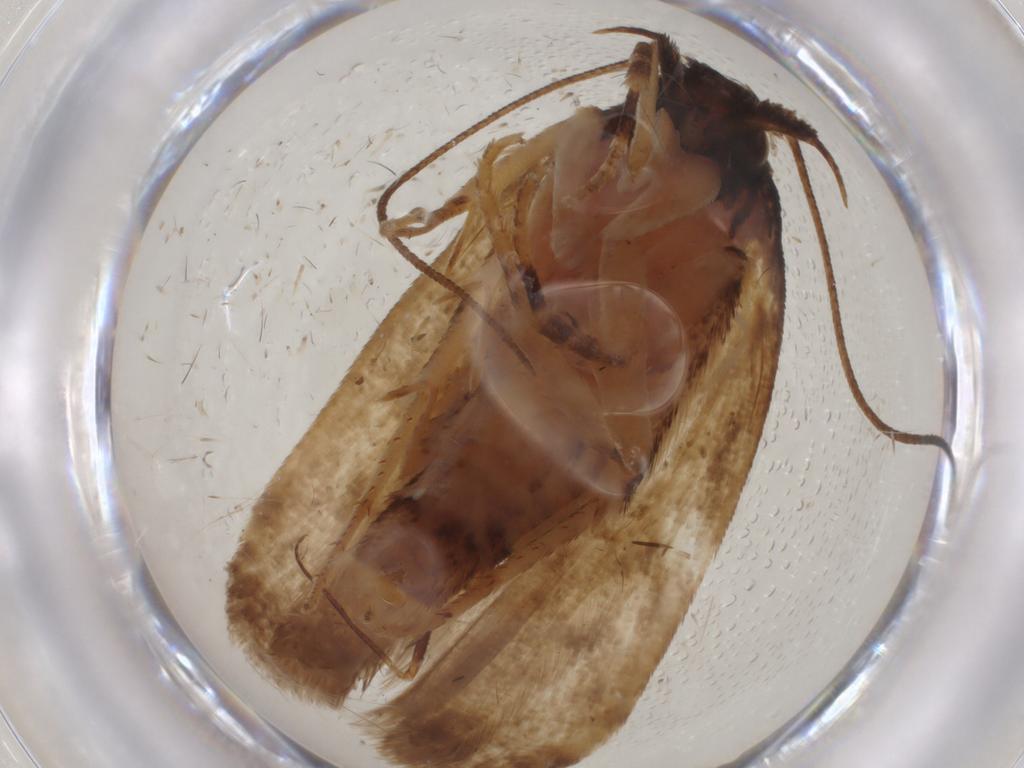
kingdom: Animalia
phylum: Arthropoda
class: Insecta
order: Lepidoptera
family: Gelechiidae
